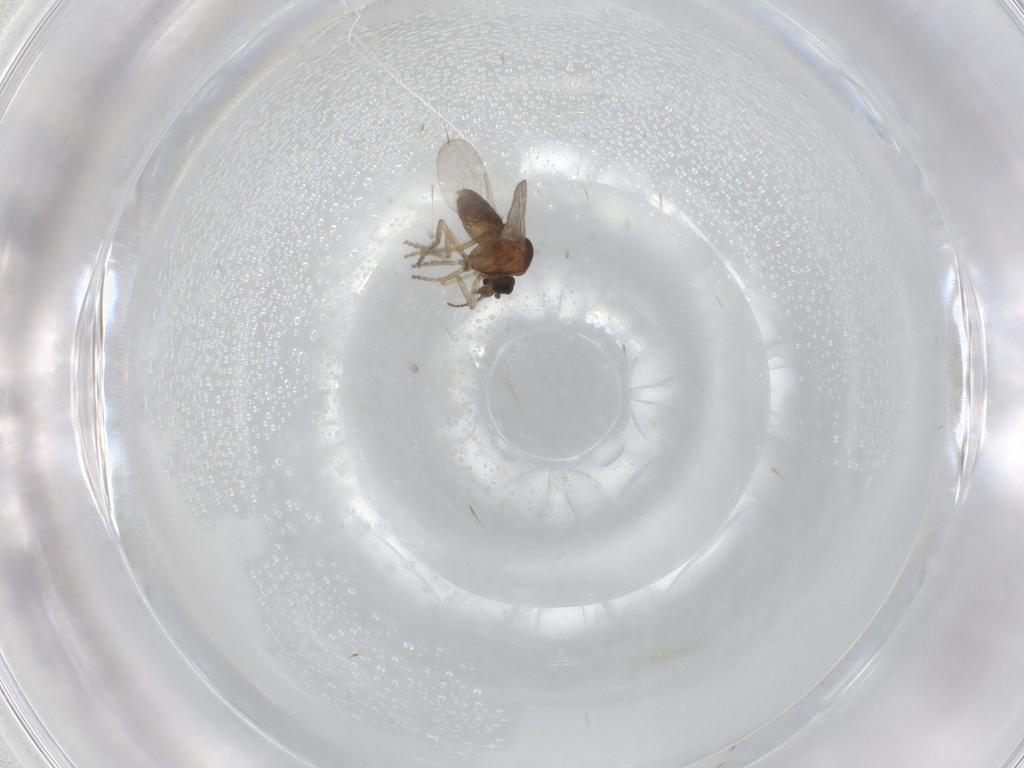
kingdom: Animalia
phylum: Arthropoda
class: Insecta
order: Diptera
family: Ceratopogonidae
